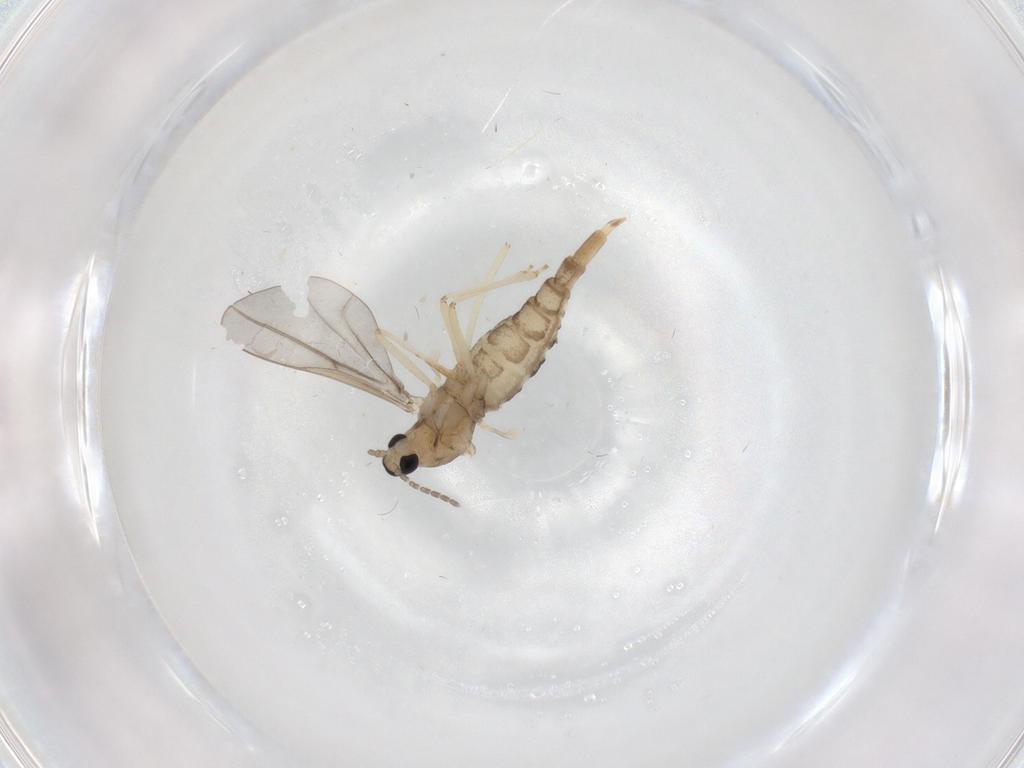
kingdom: Animalia
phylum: Arthropoda
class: Insecta
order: Diptera
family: Cecidomyiidae
